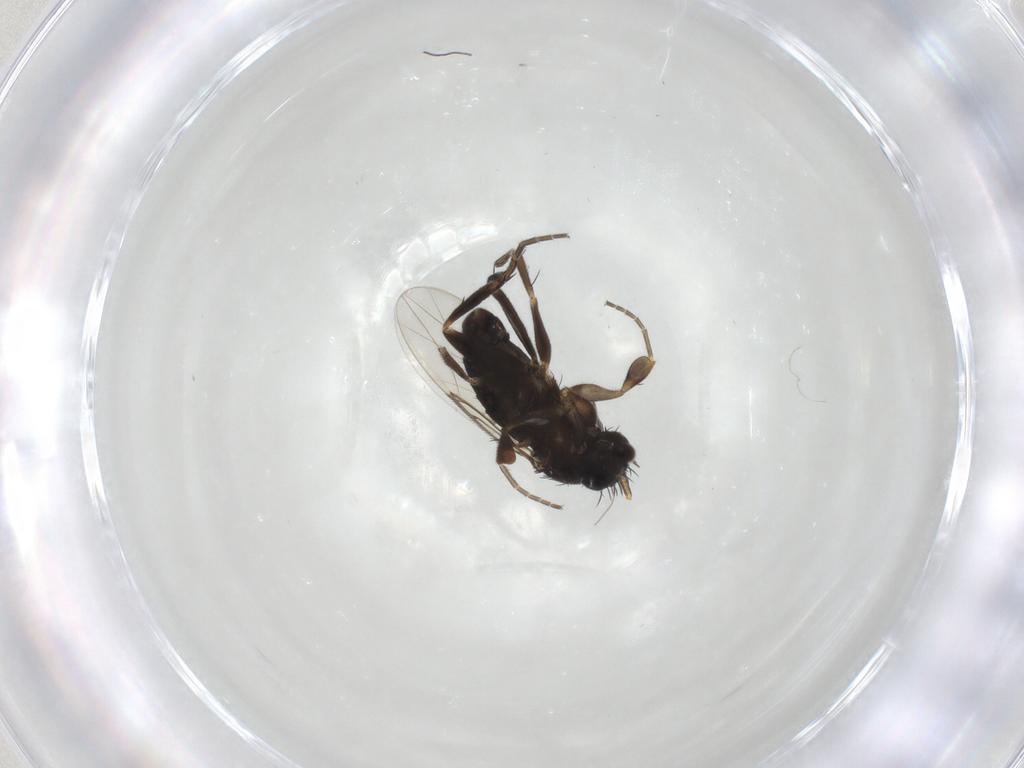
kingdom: Animalia
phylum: Arthropoda
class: Insecta
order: Diptera
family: Phoridae
